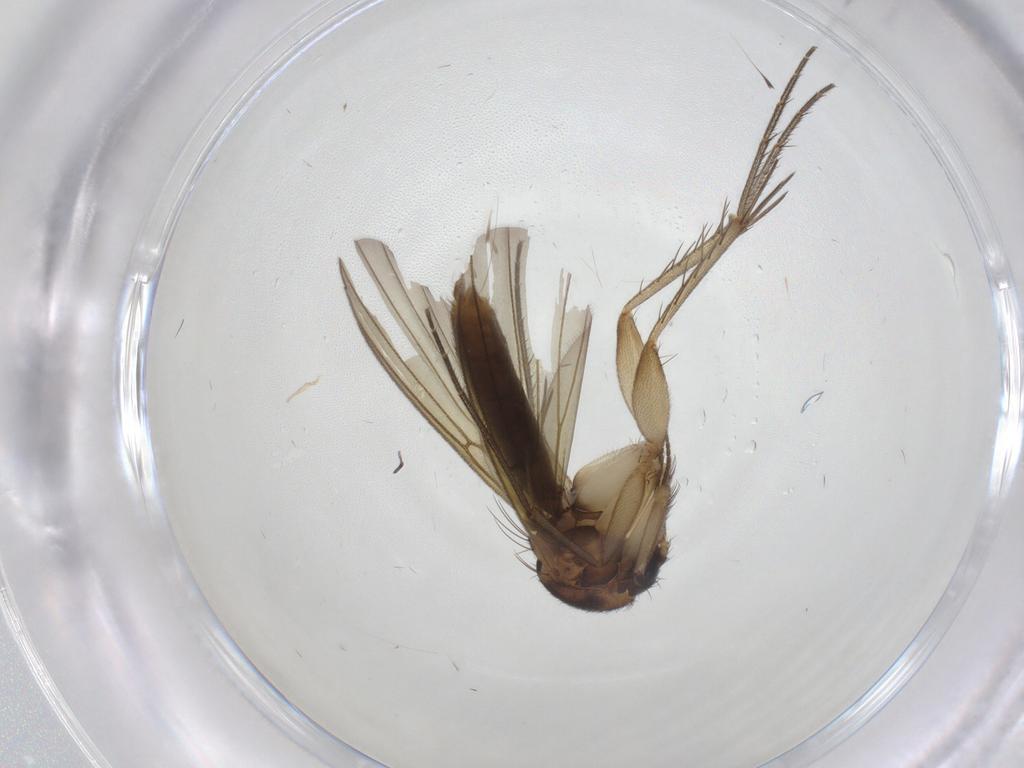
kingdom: Animalia
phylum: Arthropoda
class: Insecta
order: Diptera
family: Mycetophilidae
